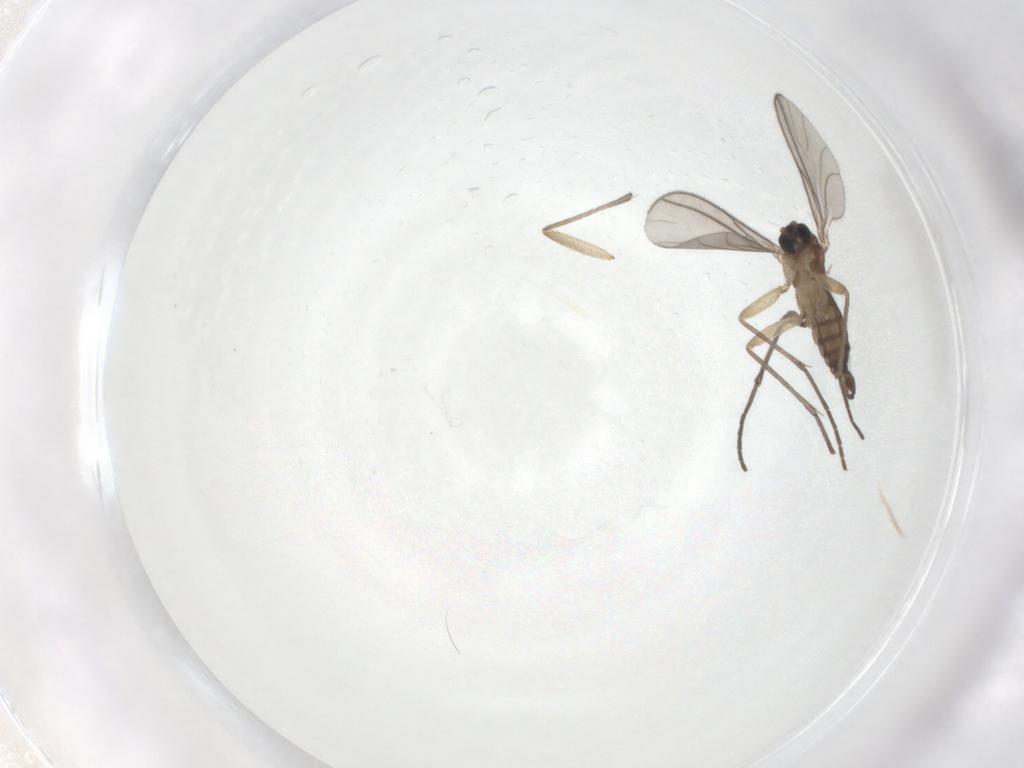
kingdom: Animalia
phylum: Arthropoda
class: Insecta
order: Diptera
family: Sciaridae
